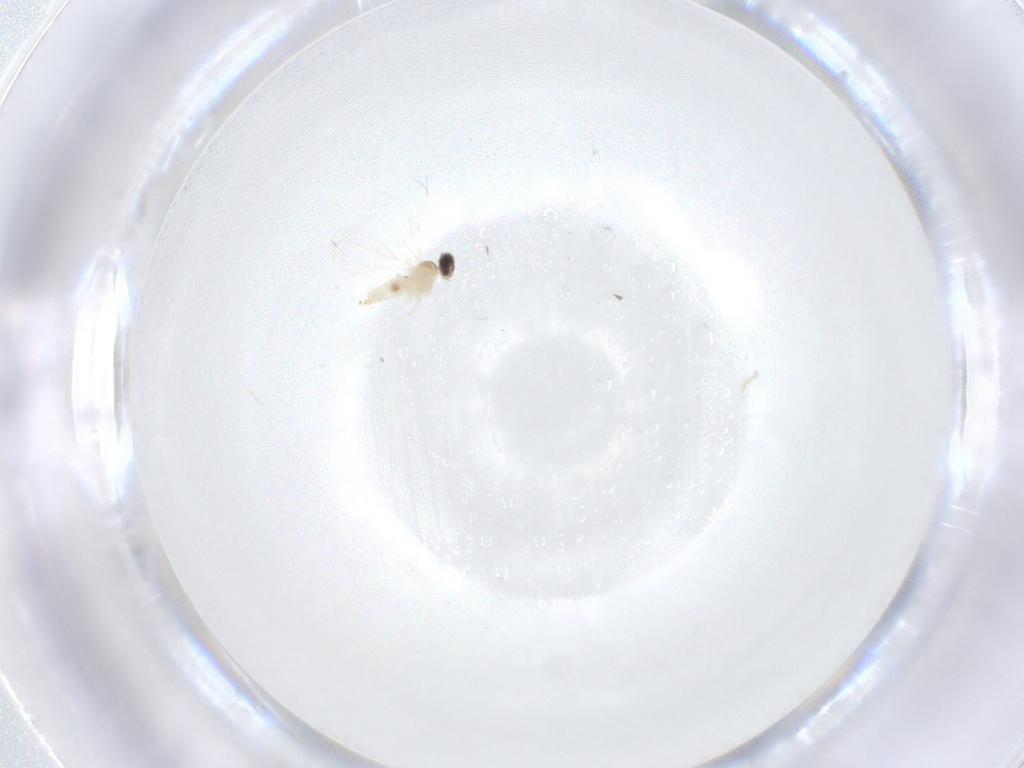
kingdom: Animalia
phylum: Arthropoda
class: Insecta
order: Diptera
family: Cecidomyiidae
